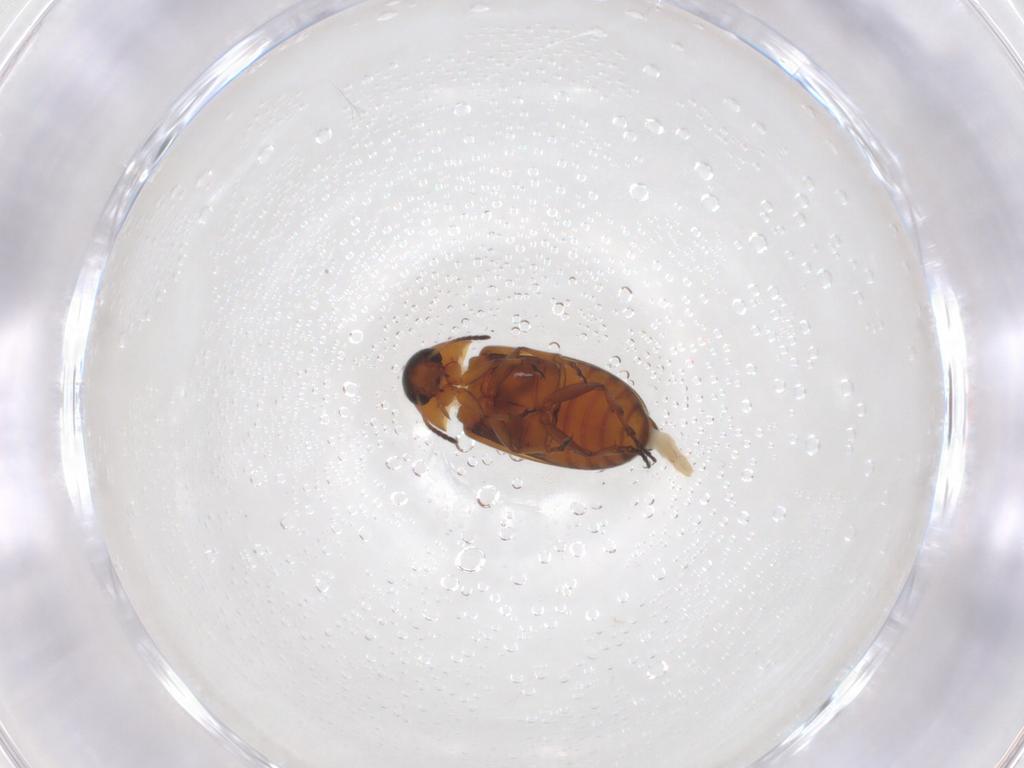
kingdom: Animalia
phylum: Arthropoda
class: Insecta
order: Coleoptera
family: Scraptiidae
